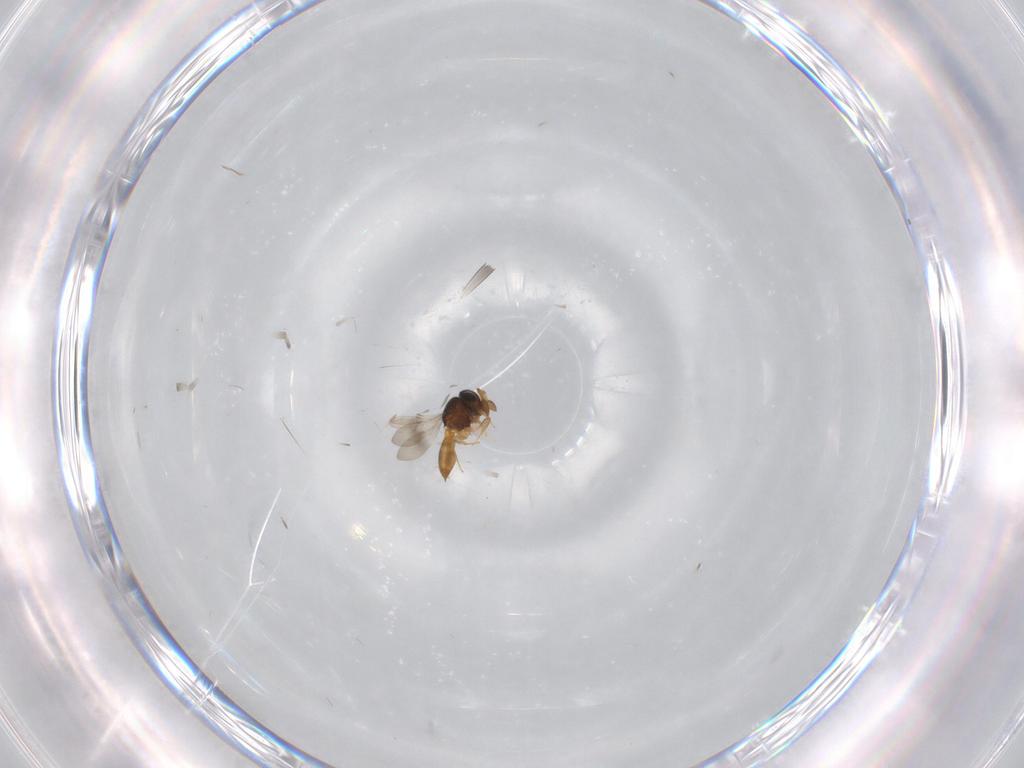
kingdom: Animalia
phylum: Arthropoda
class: Insecta
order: Hymenoptera
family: Scelionidae
